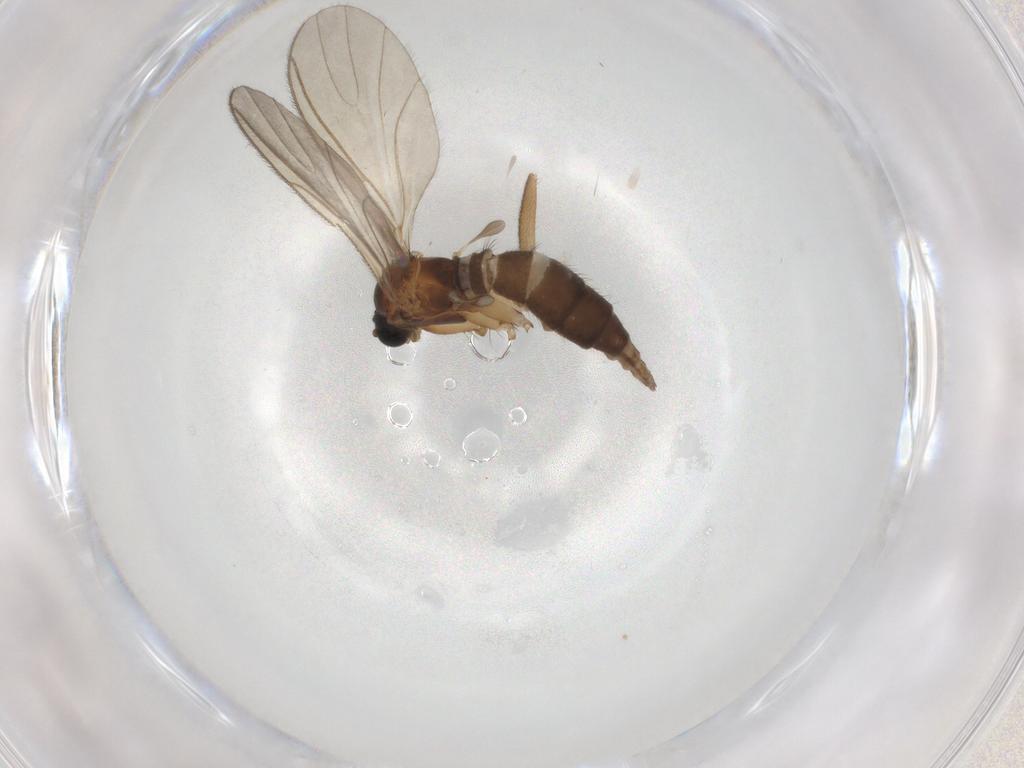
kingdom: Animalia
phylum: Arthropoda
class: Insecta
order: Diptera
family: Sciaridae
